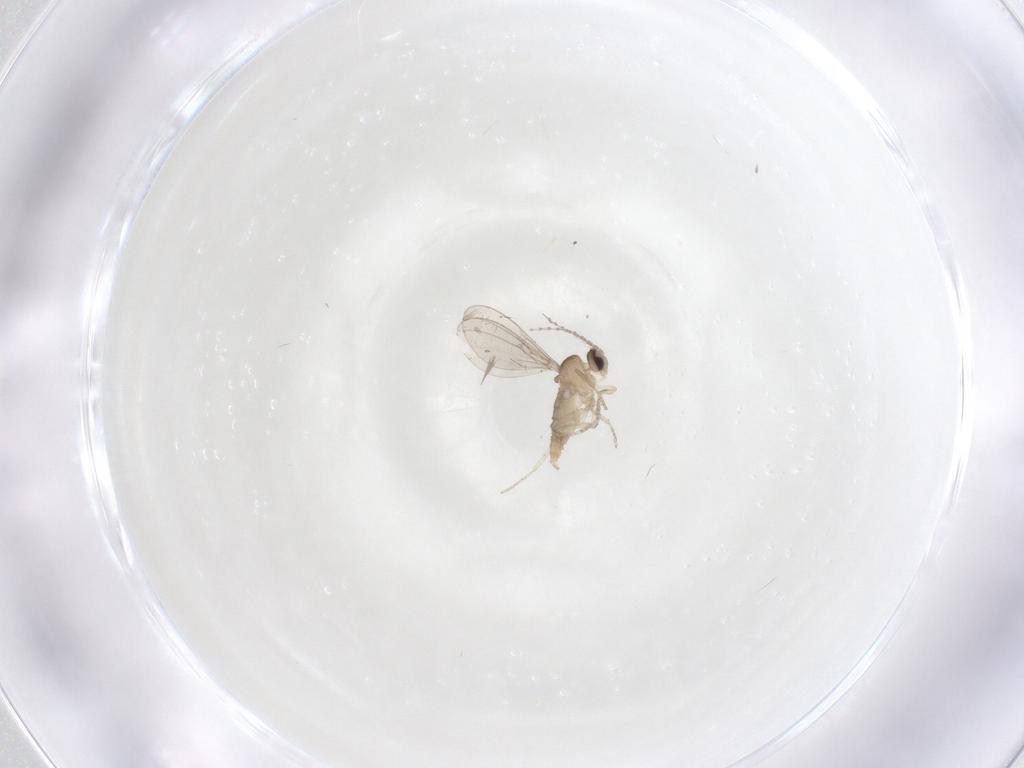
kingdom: Animalia
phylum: Arthropoda
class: Insecta
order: Diptera
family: Cecidomyiidae
